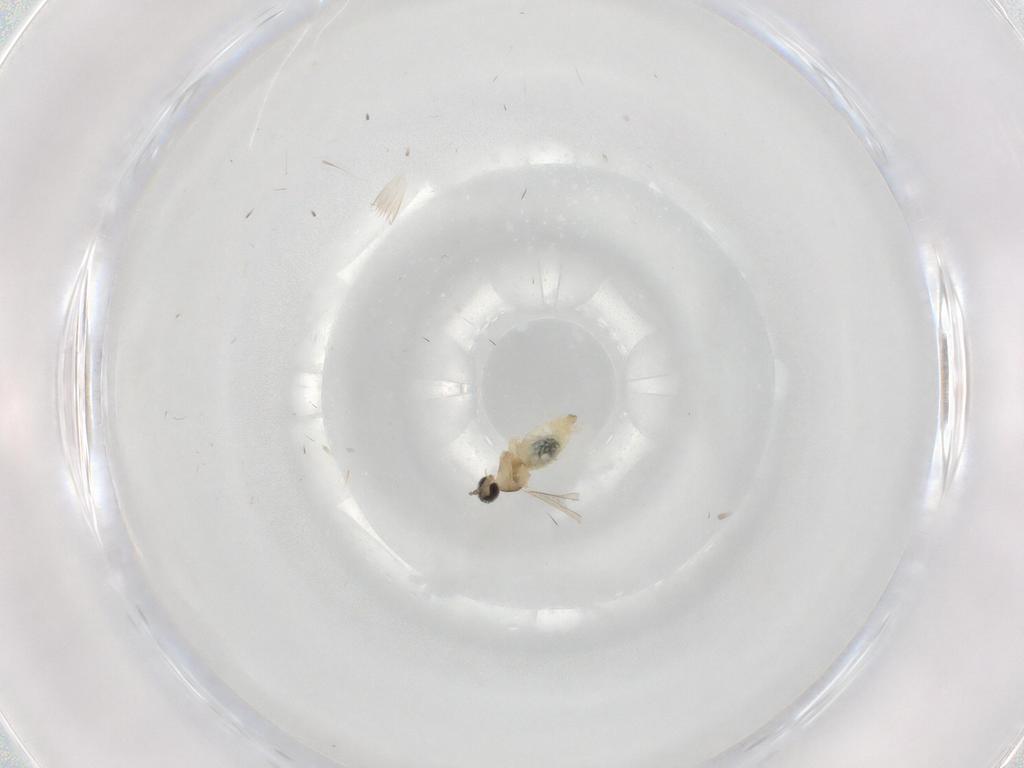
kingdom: Animalia
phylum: Arthropoda
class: Insecta
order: Diptera
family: Cecidomyiidae
